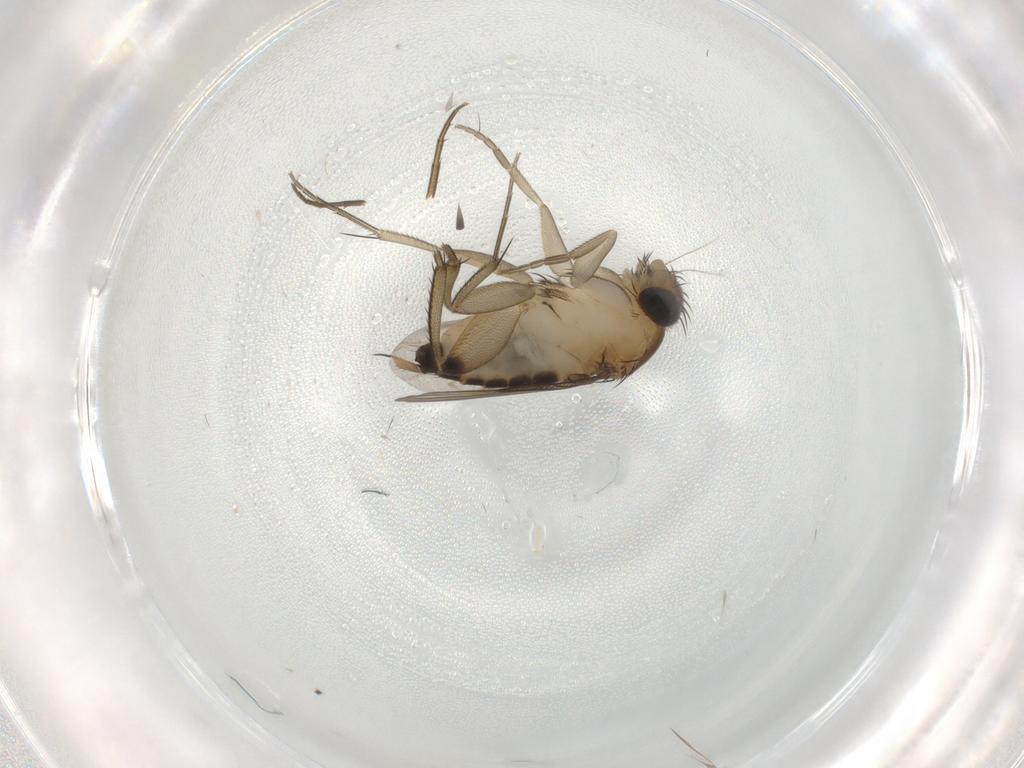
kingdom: Animalia
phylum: Arthropoda
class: Insecta
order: Diptera
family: Phoridae
